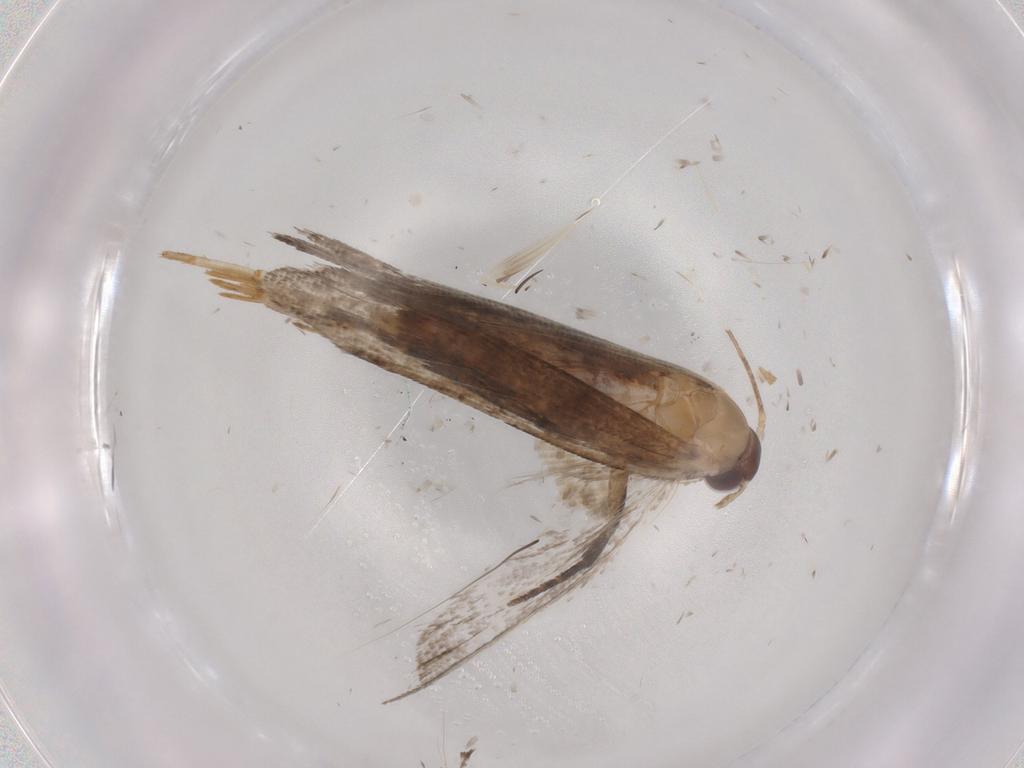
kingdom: Animalia
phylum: Arthropoda
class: Insecta
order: Lepidoptera
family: Gelechiidae
